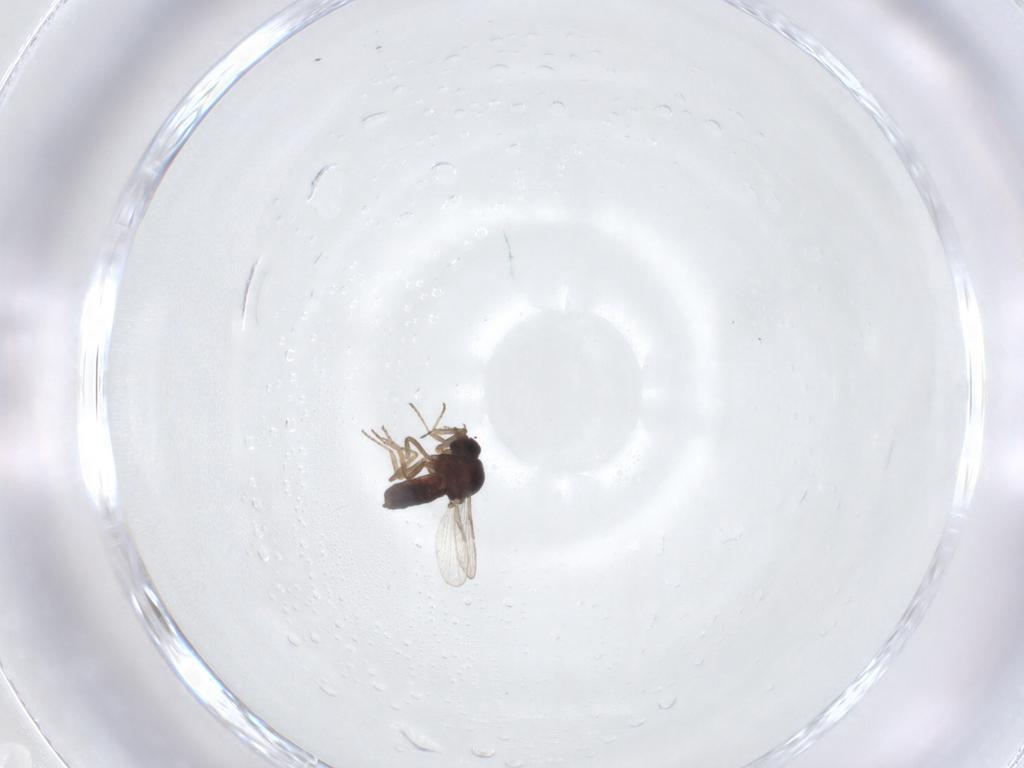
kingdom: Animalia
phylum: Arthropoda
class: Insecta
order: Diptera
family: Ceratopogonidae
